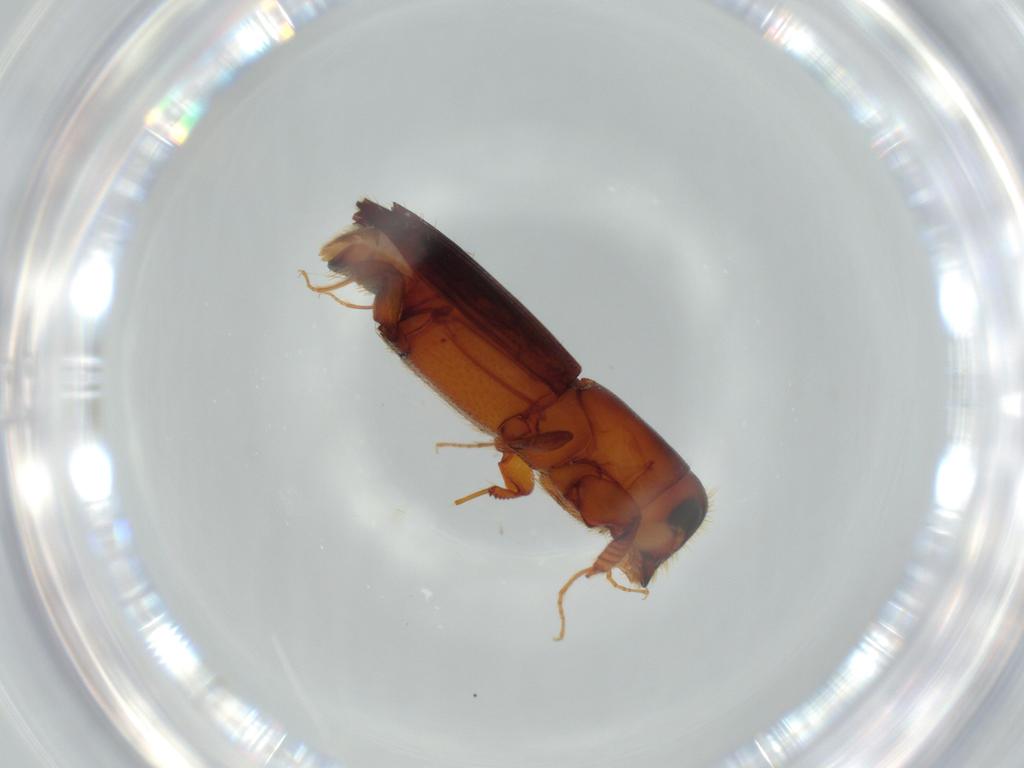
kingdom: Animalia
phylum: Arthropoda
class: Insecta
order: Coleoptera
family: Curculionidae
